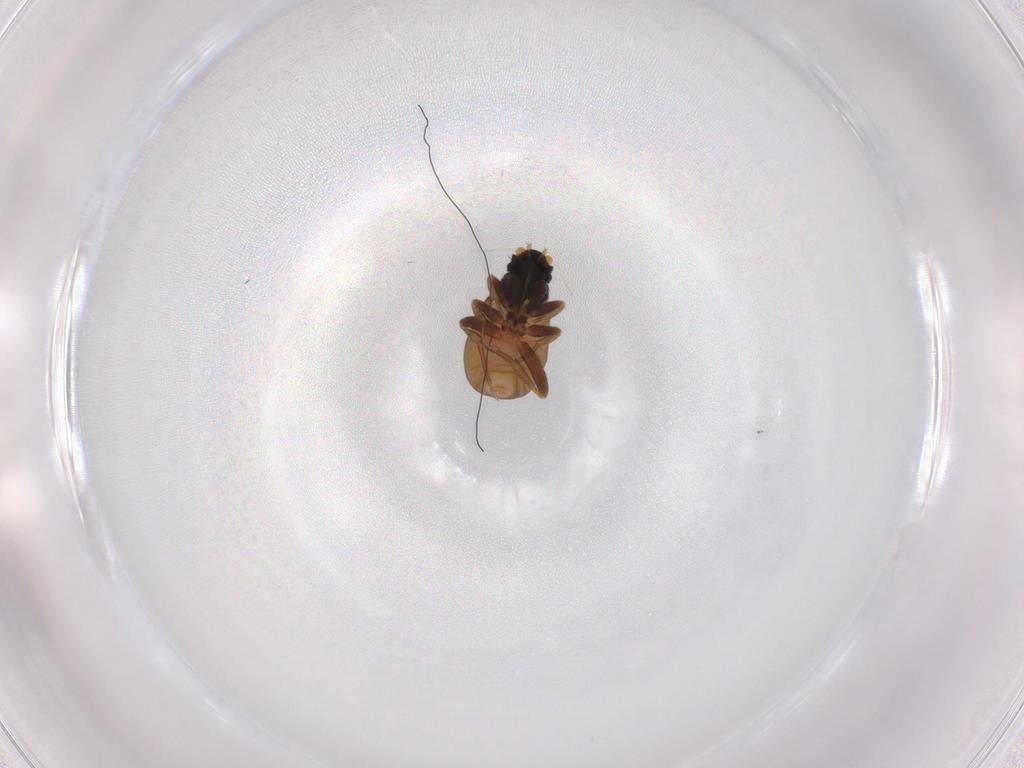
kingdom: Animalia
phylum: Arthropoda
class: Insecta
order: Diptera
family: Phoridae
